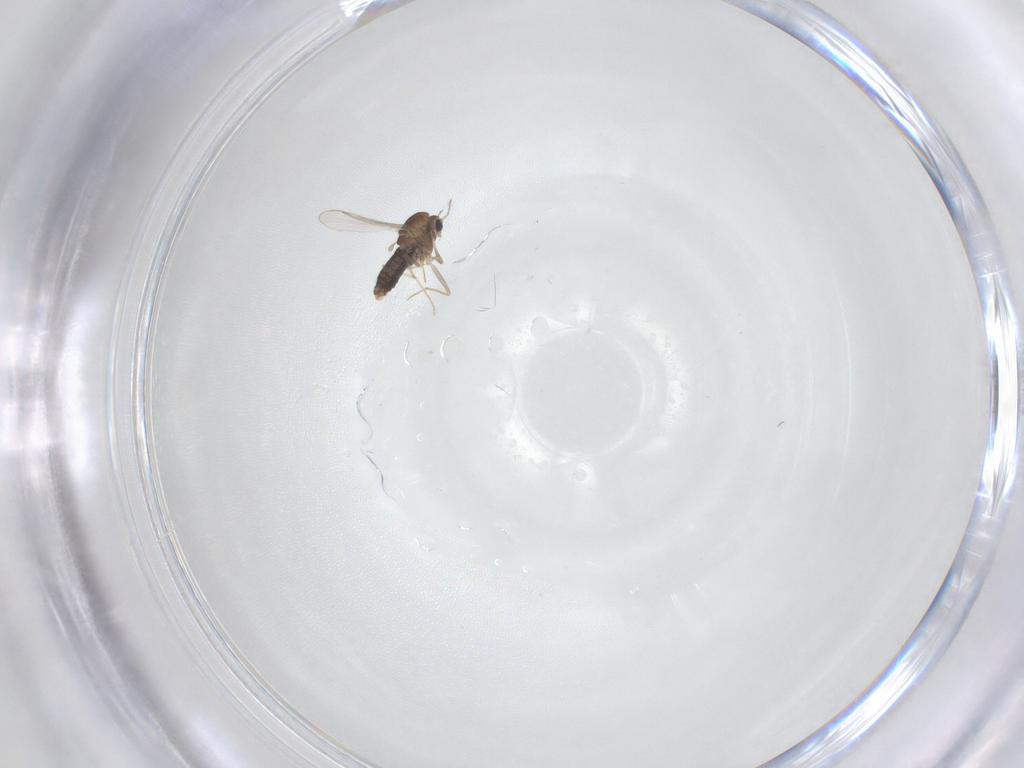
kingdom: Animalia
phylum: Arthropoda
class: Insecta
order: Diptera
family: Chironomidae
